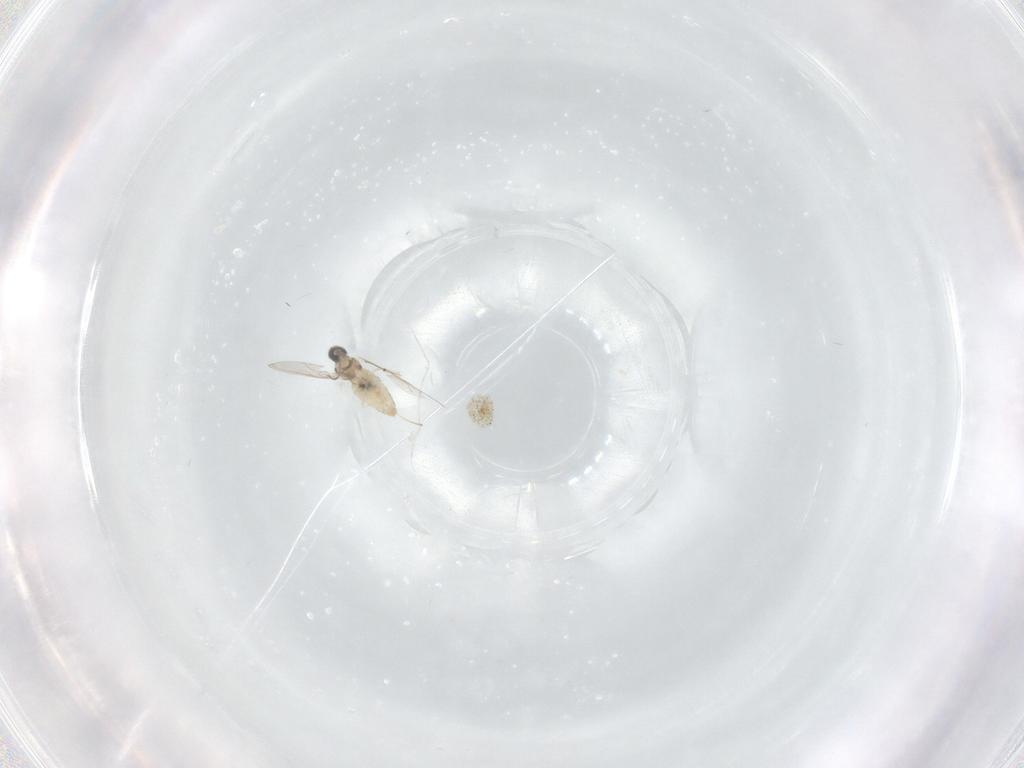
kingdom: Animalia
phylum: Arthropoda
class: Insecta
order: Diptera
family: Cecidomyiidae
